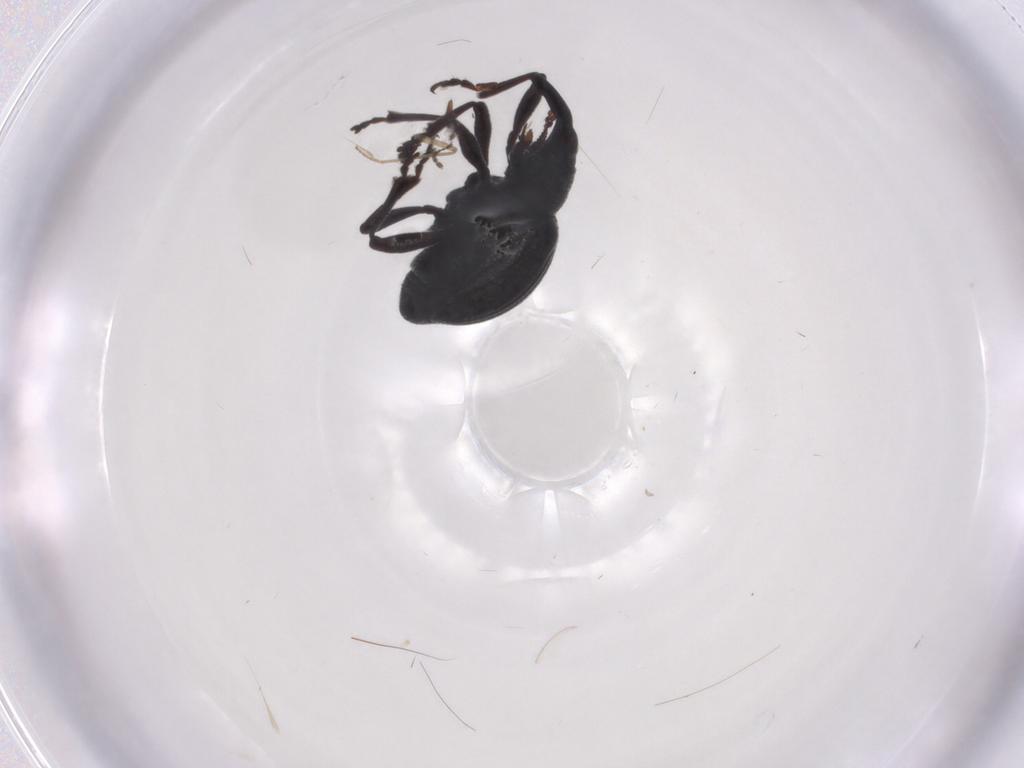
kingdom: Animalia
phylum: Arthropoda
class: Insecta
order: Coleoptera
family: Brentidae
